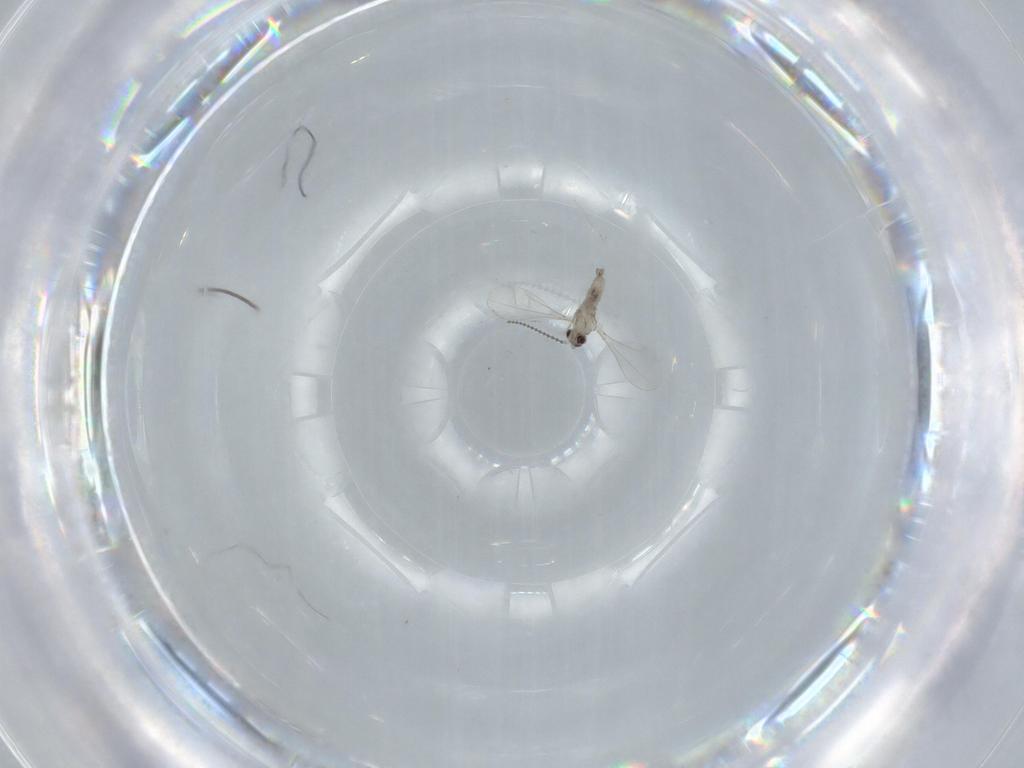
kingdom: Animalia
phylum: Arthropoda
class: Insecta
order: Diptera
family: Cecidomyiidae
